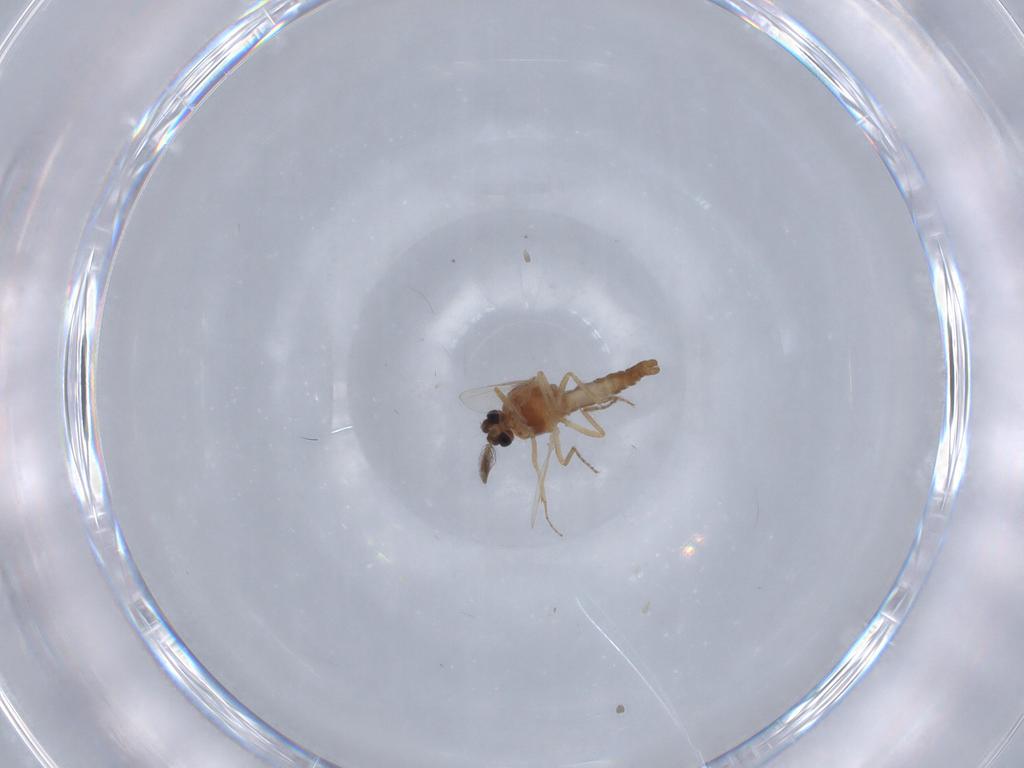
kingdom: Animalia
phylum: Arthropoda
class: Insecta
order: Diptera
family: Ceratopogonidae
